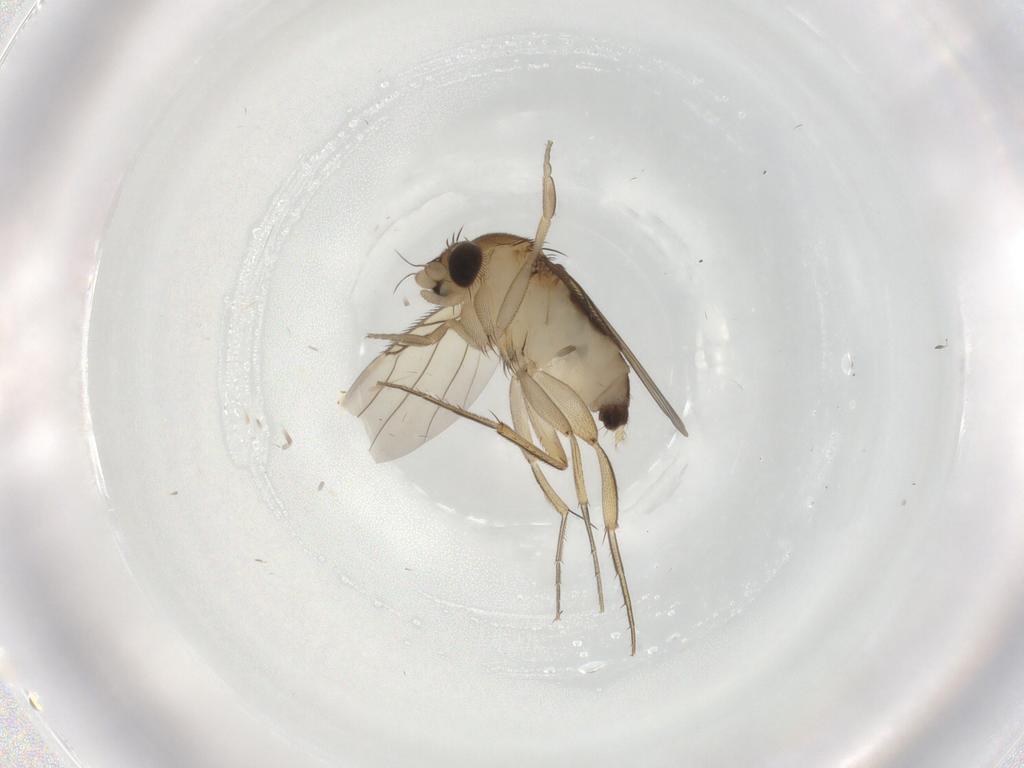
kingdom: Animalia
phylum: Arthropoda
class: Insecta
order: Diptera
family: Phoridae
